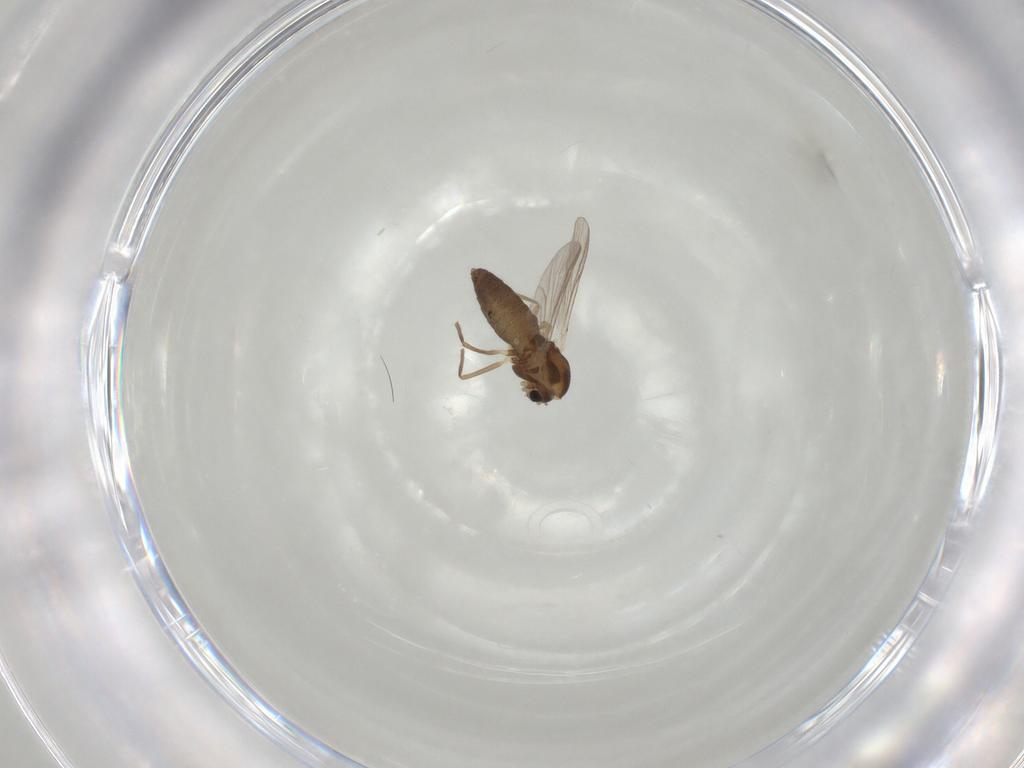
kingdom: Animalia
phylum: Arthropoda
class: Insecta
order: Diptera
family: Chironomidae
